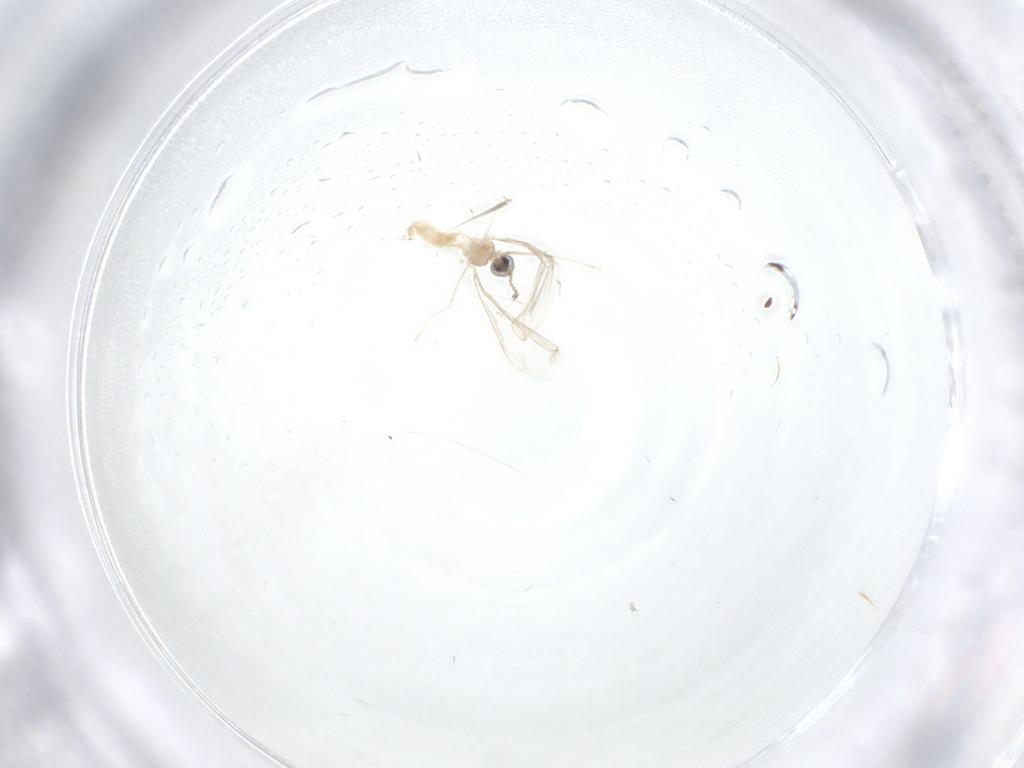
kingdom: Animalia
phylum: Arthropoda
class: Insecta
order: Diptera
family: Cecidomyiidae
